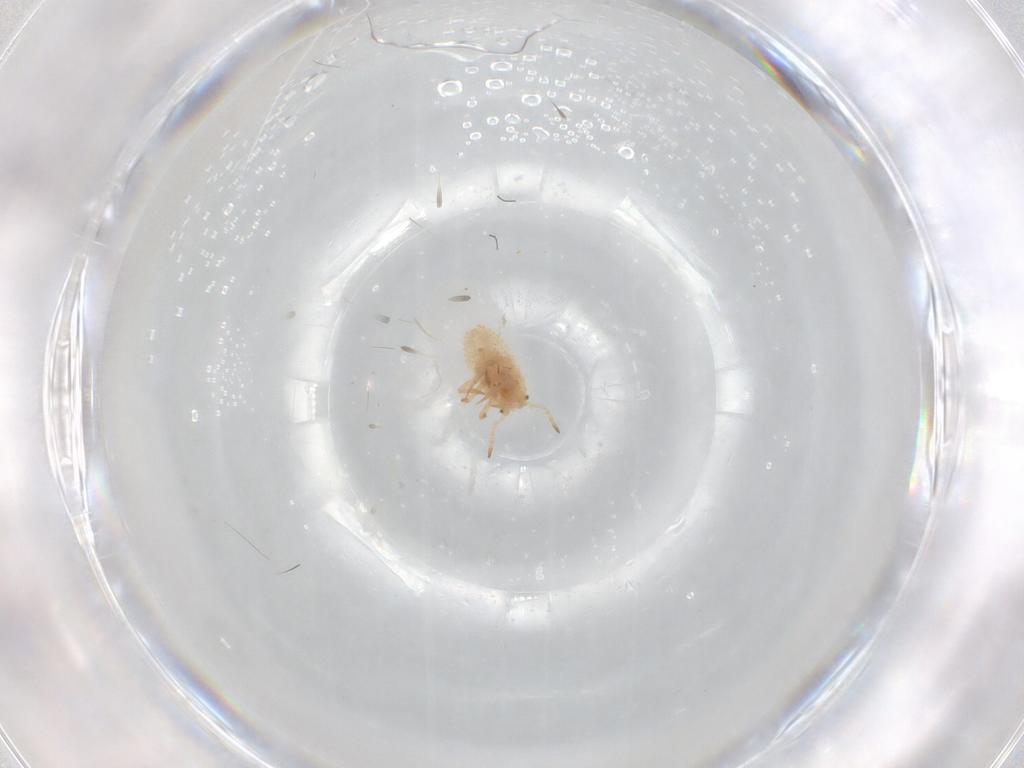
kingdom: Animalia
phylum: Arthropoda
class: Insecta
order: Hemiptera
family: Coccoidea_incertae_sedis
